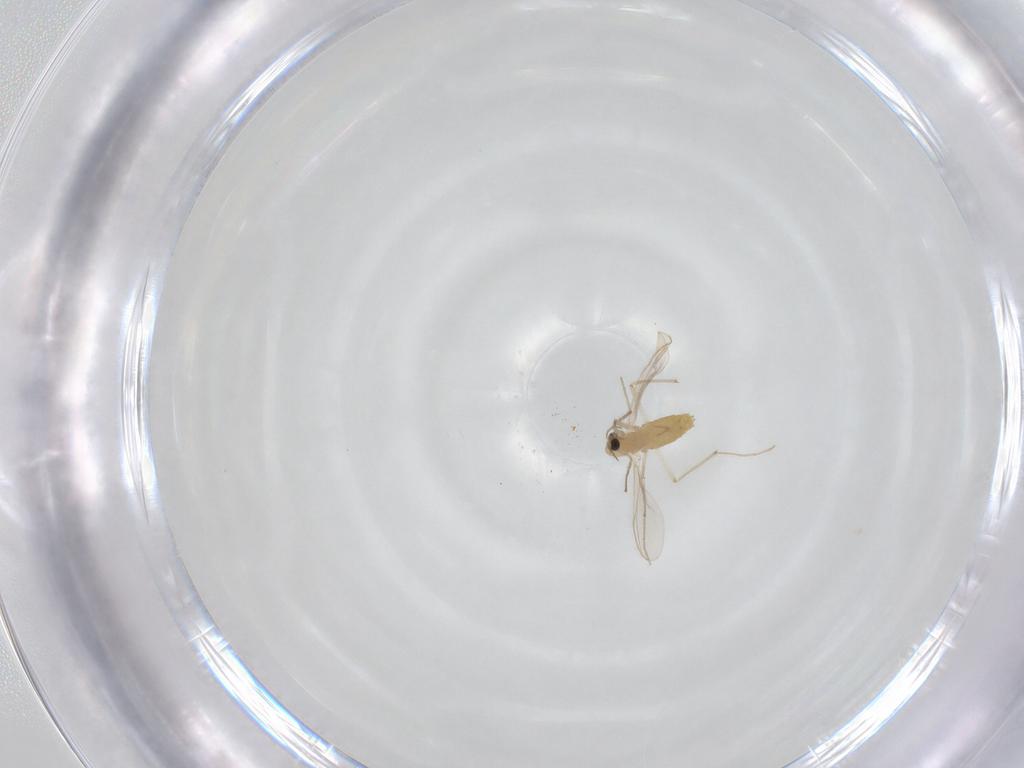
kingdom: Animalia
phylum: Arthropoda
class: Insecta
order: Diptera
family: Chironomidae
